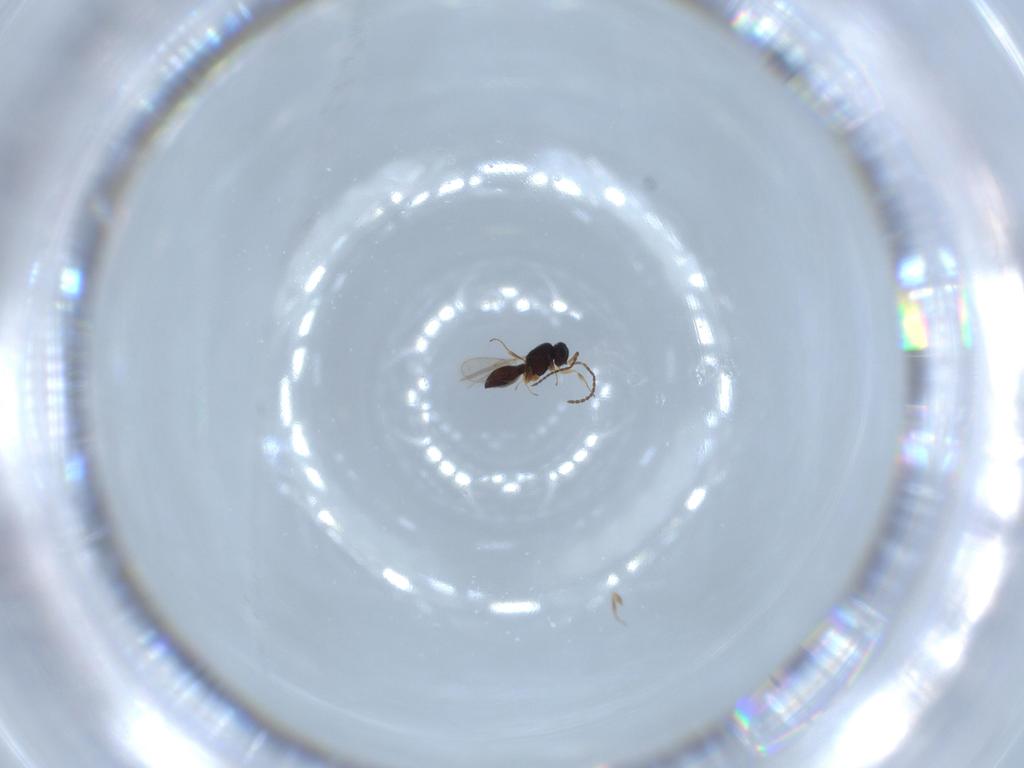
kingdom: Animalia
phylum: Arthropoda
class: Insecta
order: Hymenoptera
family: Scelionidae
